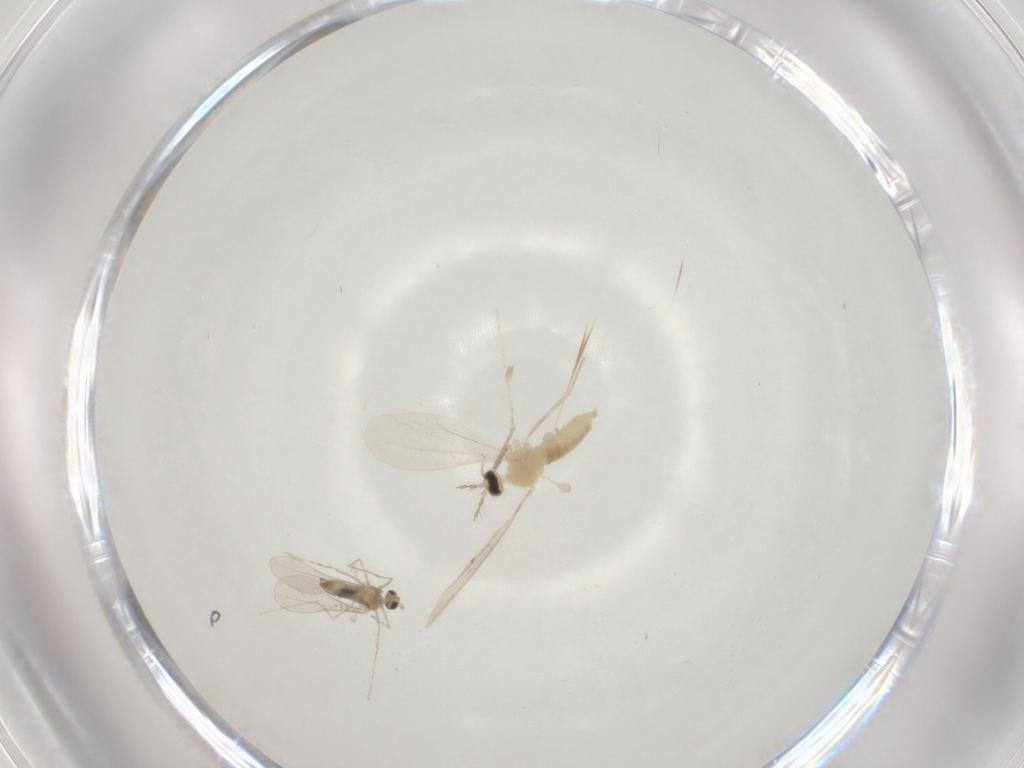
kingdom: Animalia
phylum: Arthropoda
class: Insecta
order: Diptera
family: Cecidomyiidae
